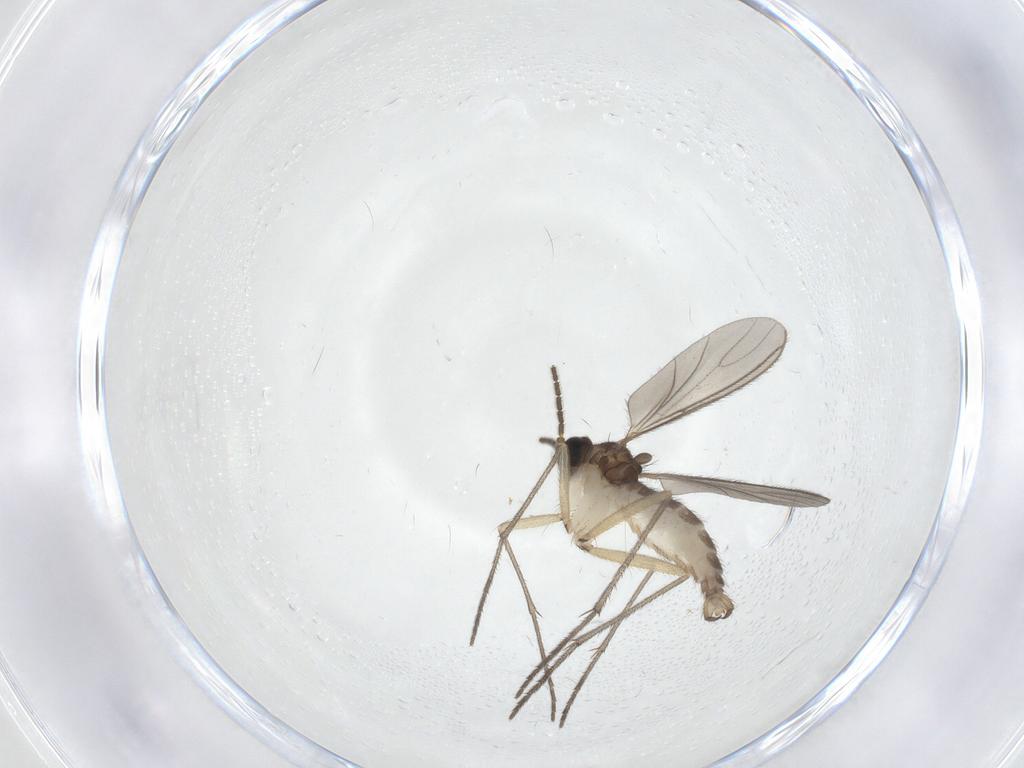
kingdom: Animalia
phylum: Arthropoda
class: Insecta
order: Diptera
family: Sciaridae
